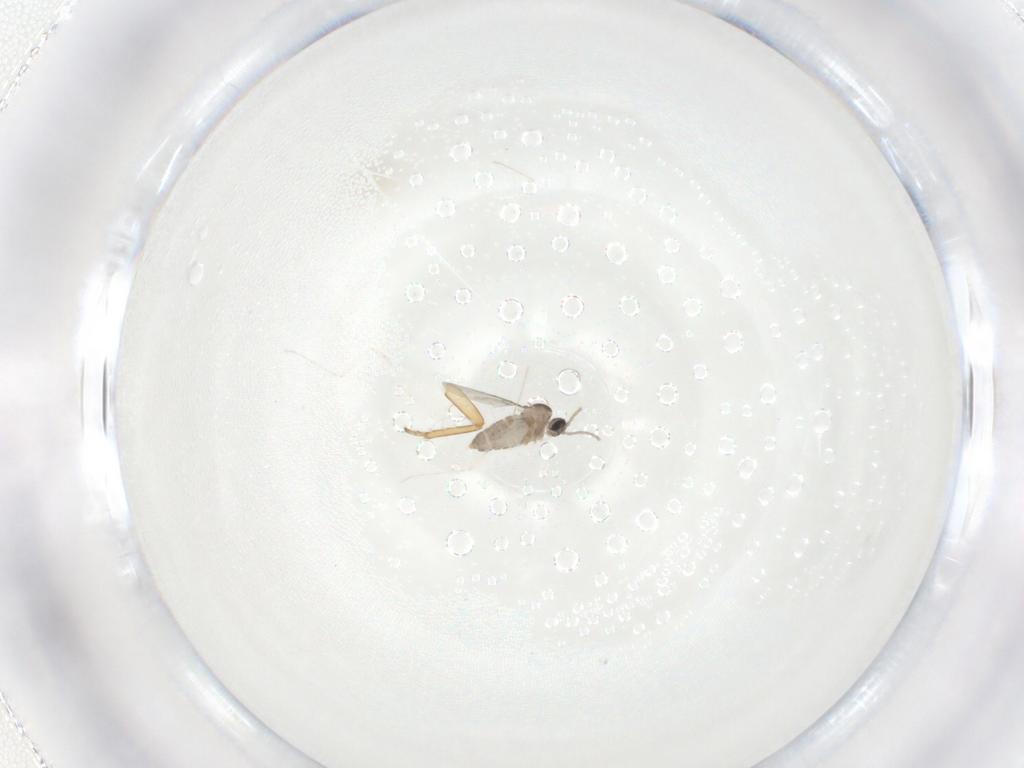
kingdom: Animalia
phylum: Arthropoda
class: Insecta
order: Diptera
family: Cecidomyiidae
